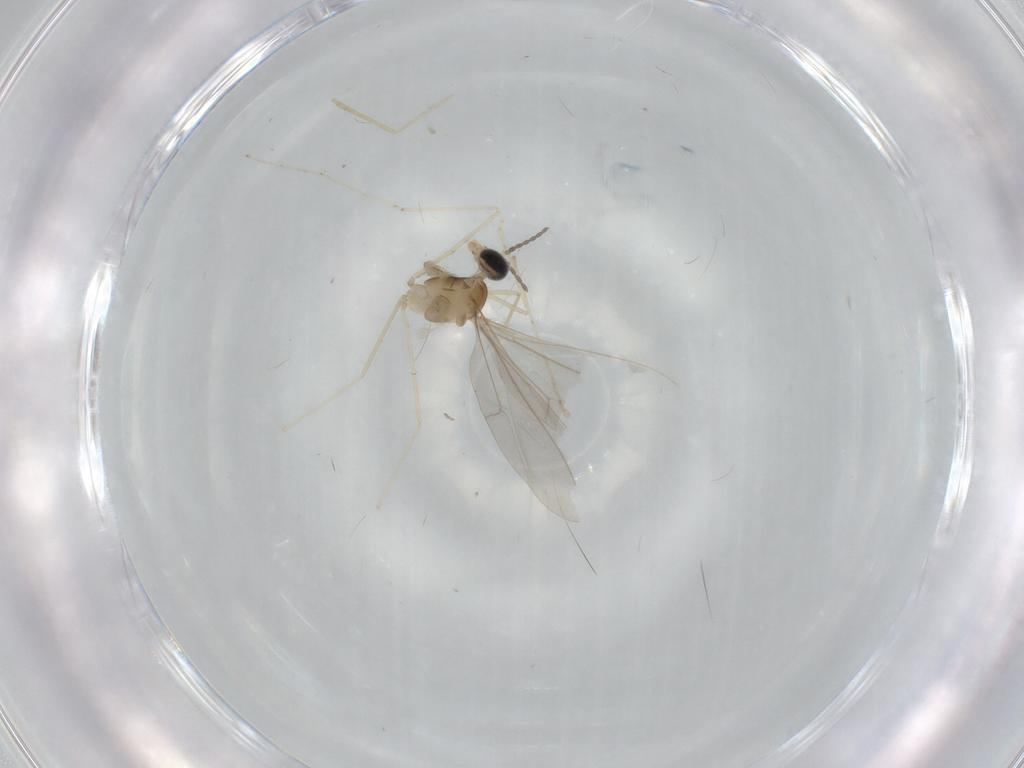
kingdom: Animalia
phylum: Arthropoda
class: Insecta
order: Diptera
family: Cecidomyiidae
